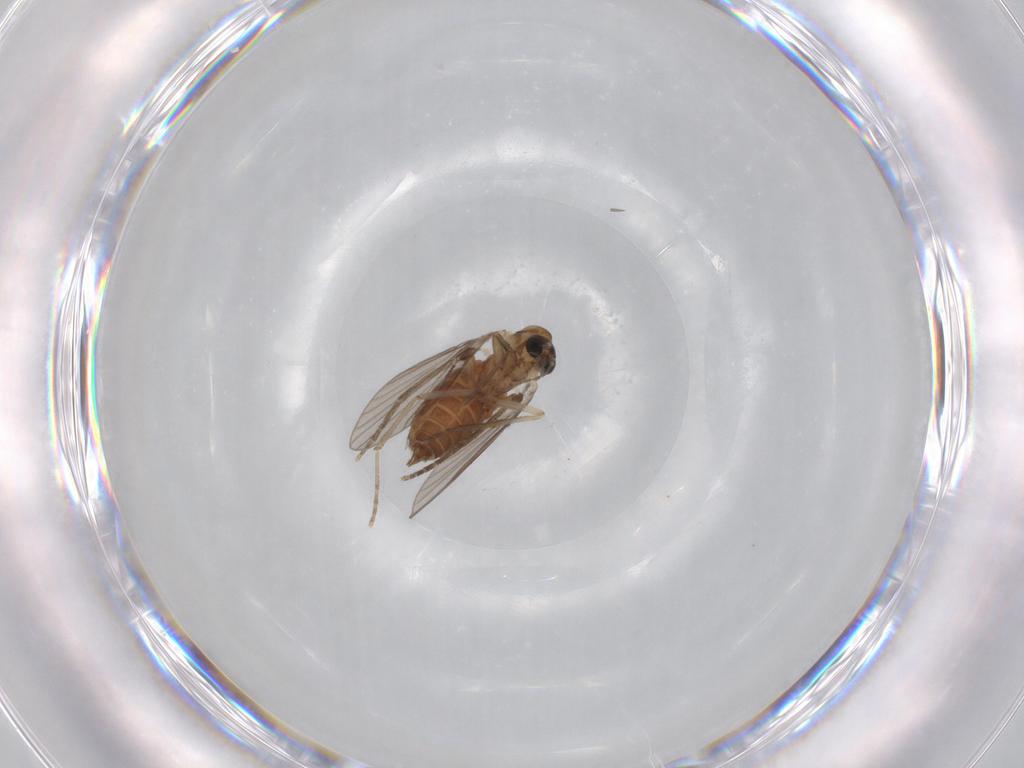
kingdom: Animalia
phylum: Arthropoda
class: Insecta
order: Diptera
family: Chironomidae
